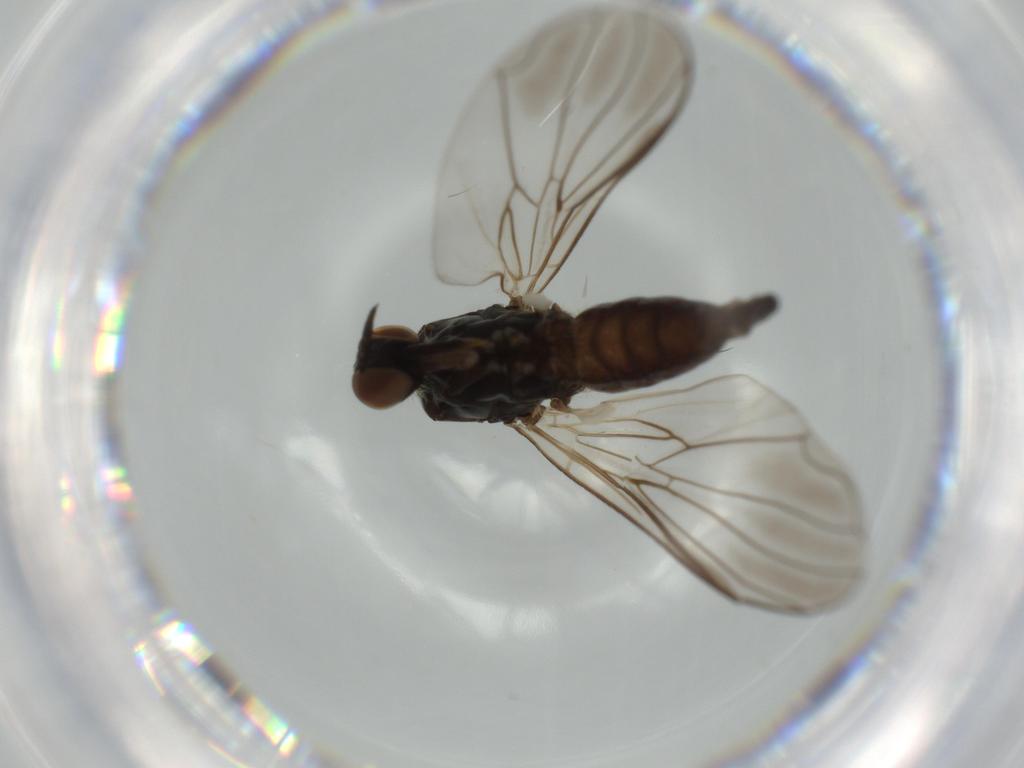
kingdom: Animalia
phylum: Arthropoda
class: Insecta
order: Diptera
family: Empididae
